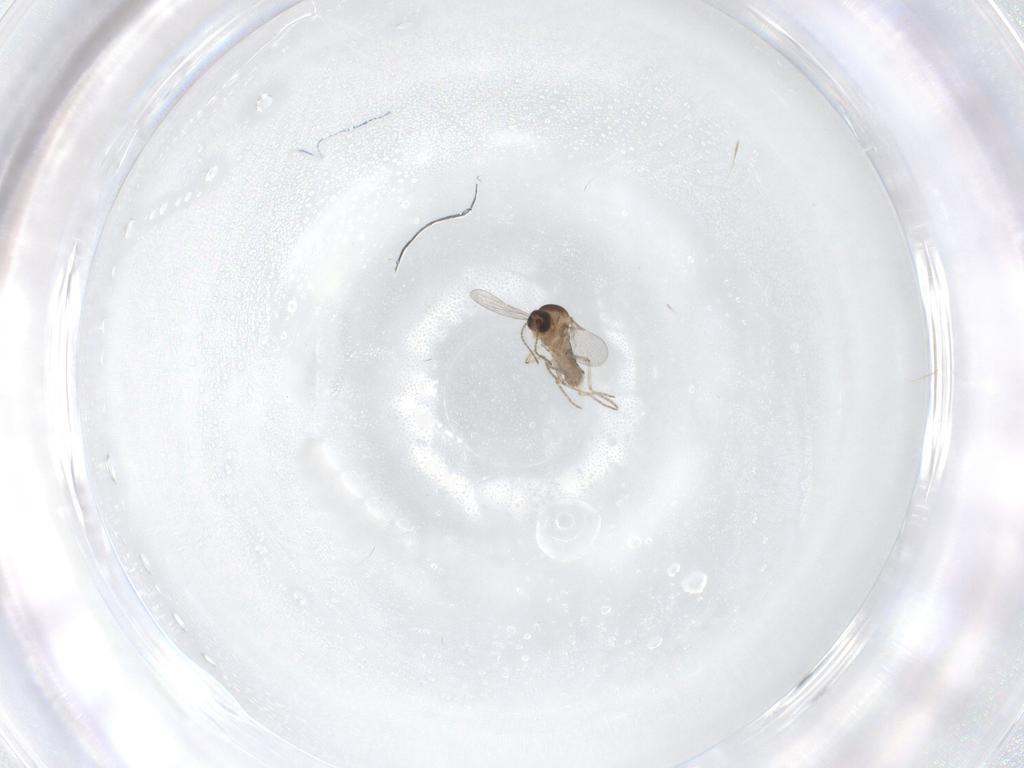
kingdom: Animalia
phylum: Arthropoda
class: Insecta
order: Diptera
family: Ceratopogonidae
